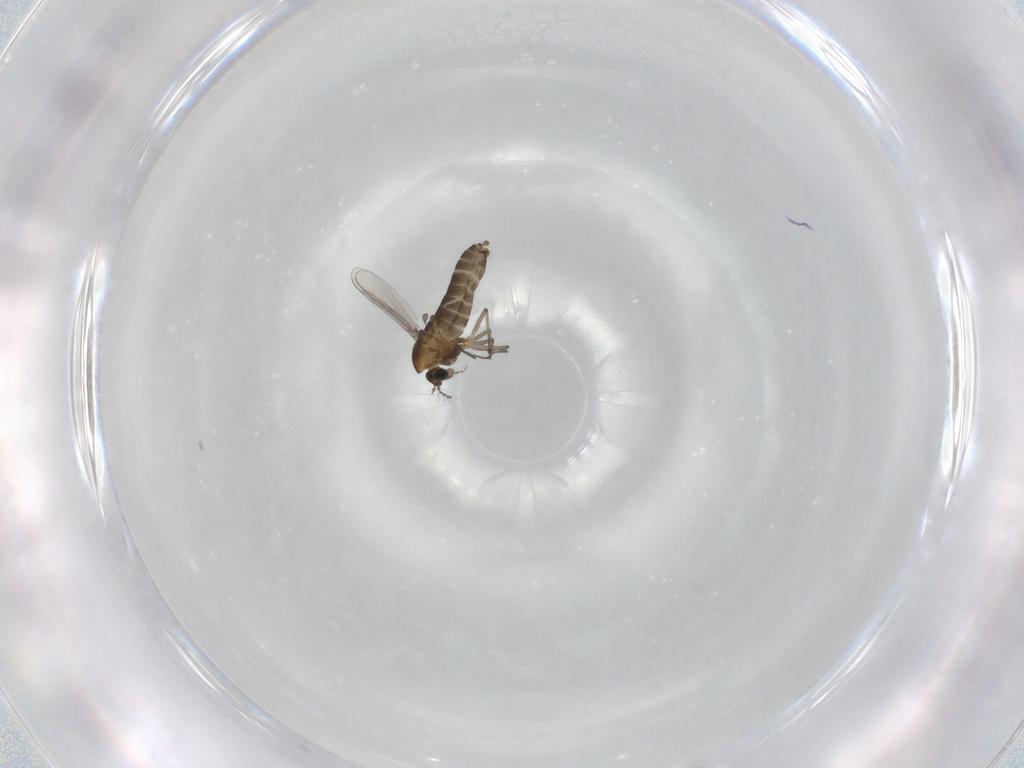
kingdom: Animalia
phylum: Arthropoda
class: Insecta
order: Diptera
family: Chironomidae
